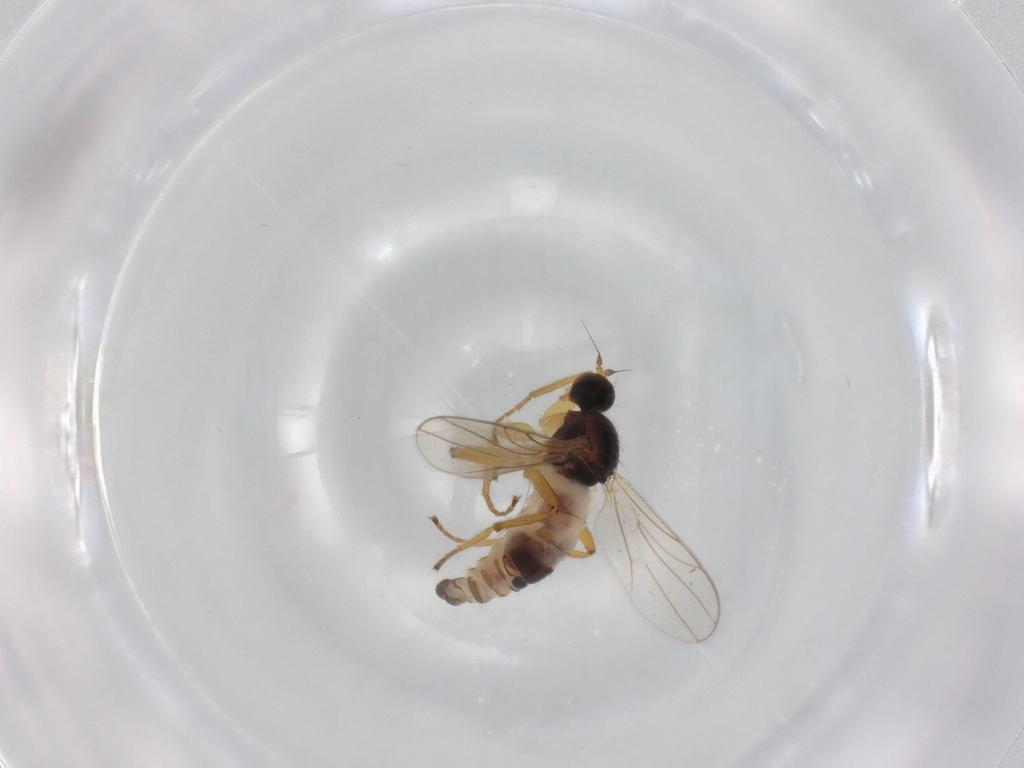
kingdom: Animalia
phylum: Arthropoda
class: Insecta
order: Diptera
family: Hybotidae
